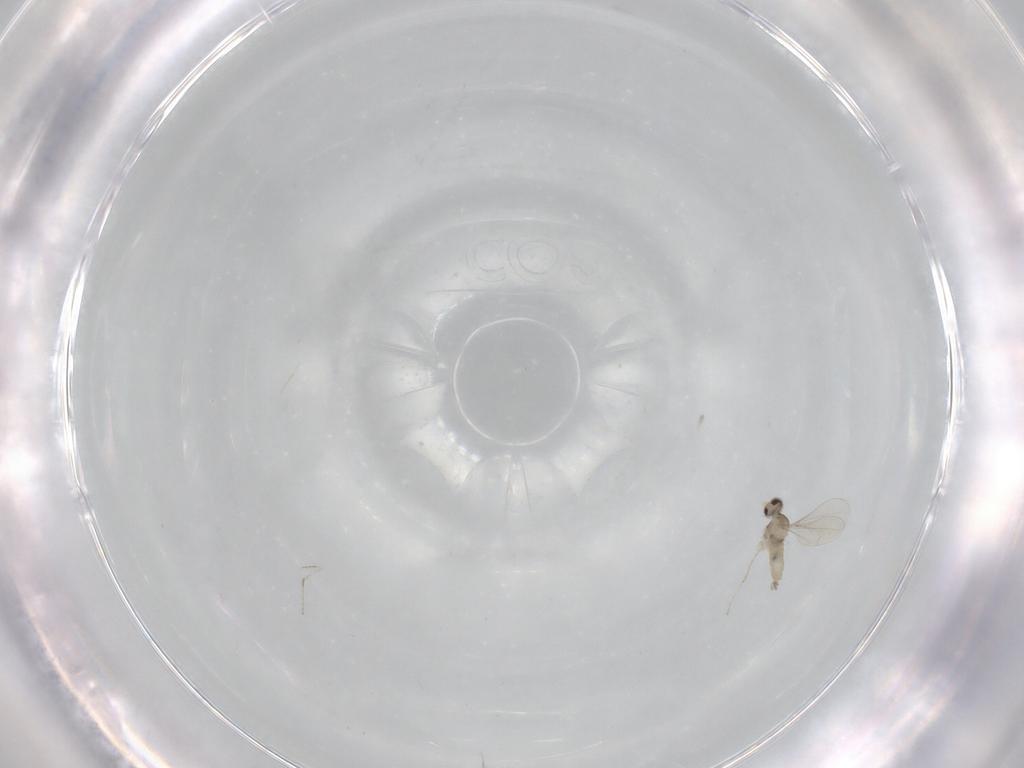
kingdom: Animalia
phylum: Arthropoda
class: Insecta
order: Diptera
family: Cecidomyiidae
